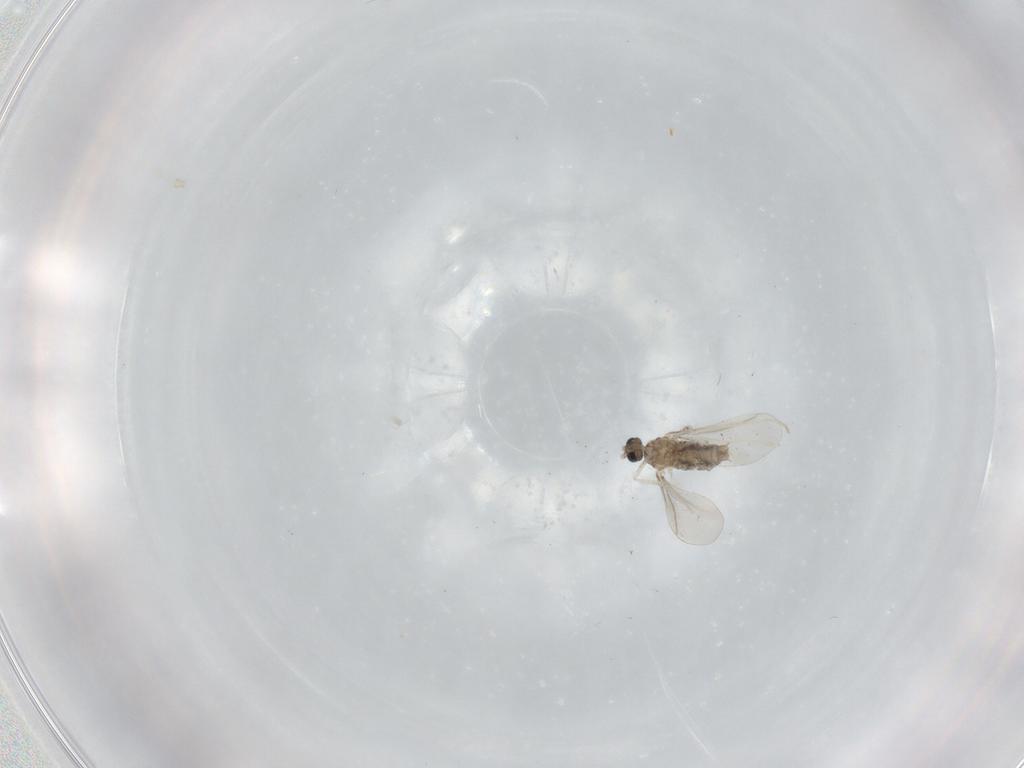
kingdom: Animalia
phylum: Arthropoda
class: Insecta
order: Diptera
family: Cecidomyiidae
